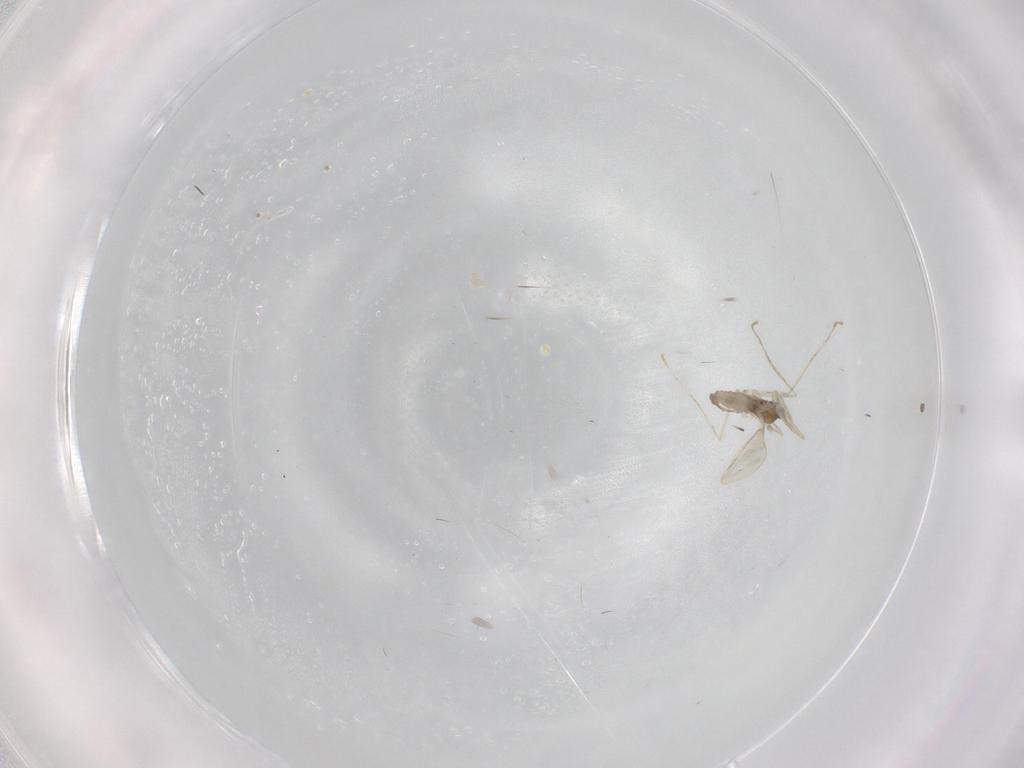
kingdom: Animalia
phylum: Arthropoda
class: Insecta
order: Diptera
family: Cecidomyiidae
